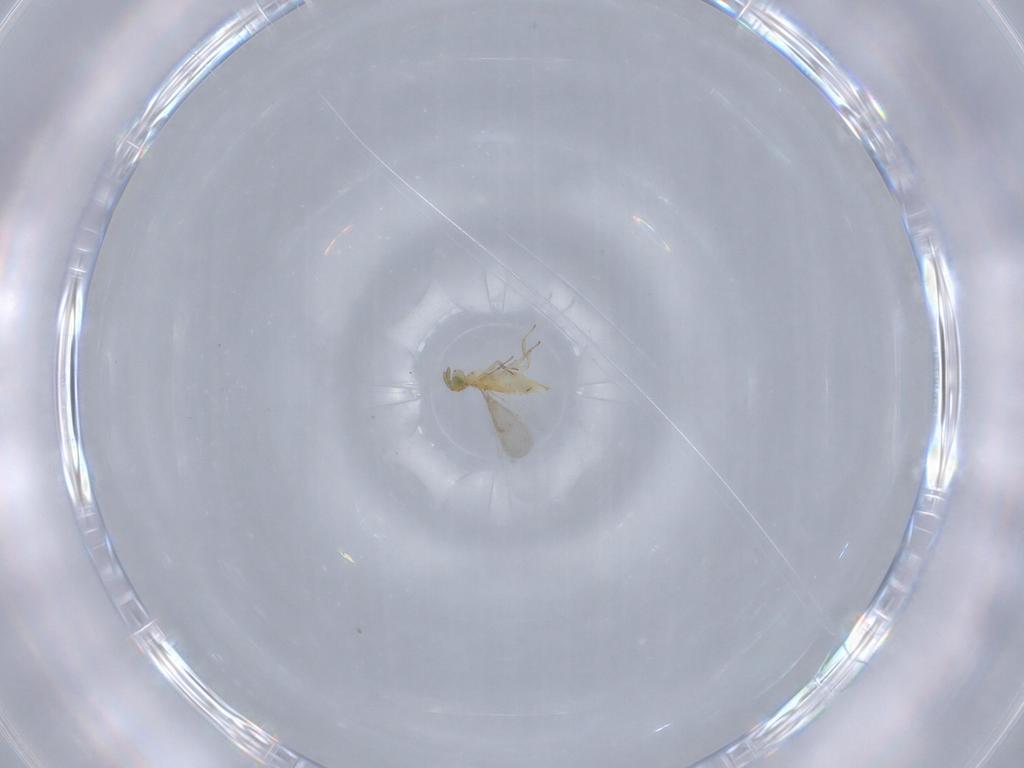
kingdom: Animalia
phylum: Arthropoda
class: Insecta
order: Hymenoptera
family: Aphelinidae
